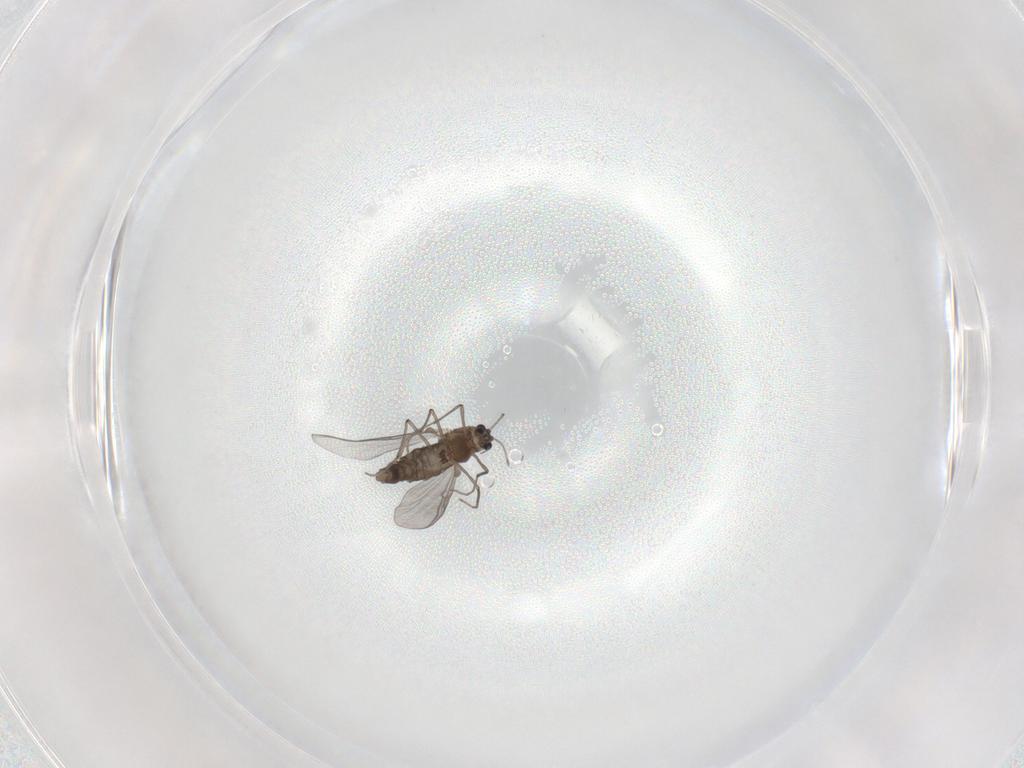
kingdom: Animalia
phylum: Arthropoda
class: Insecta
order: Diptera
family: Chironomidae
